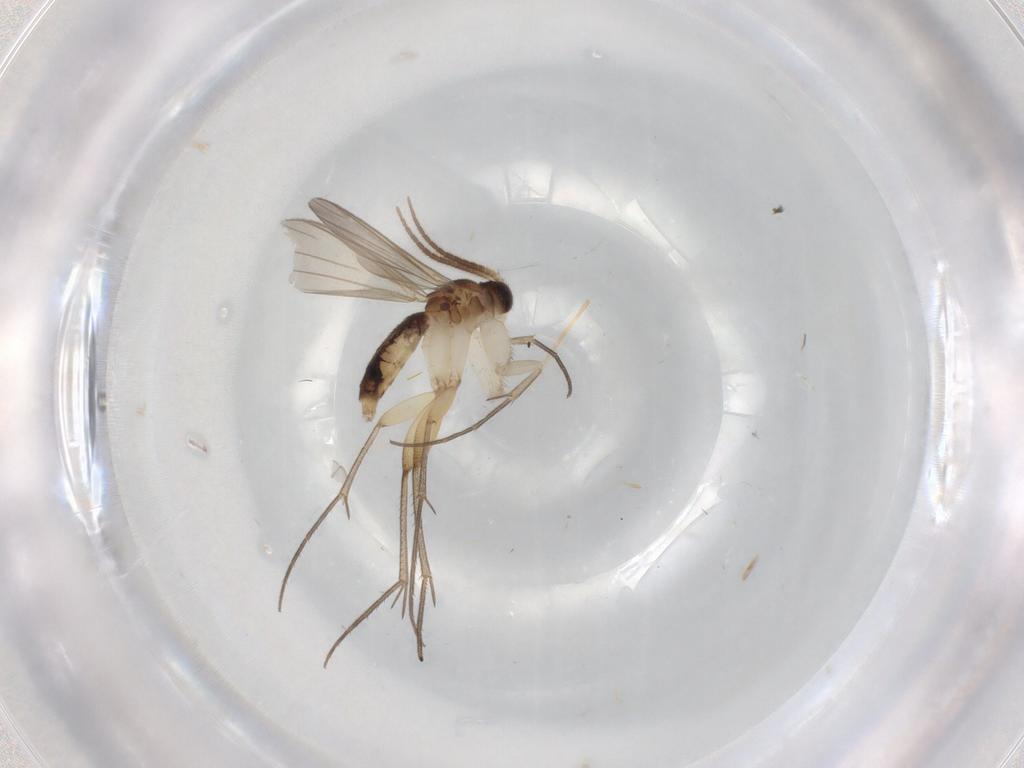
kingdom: Animalia
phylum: Arthropoda
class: Insecta
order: Diptera
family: Mycetophilidae
